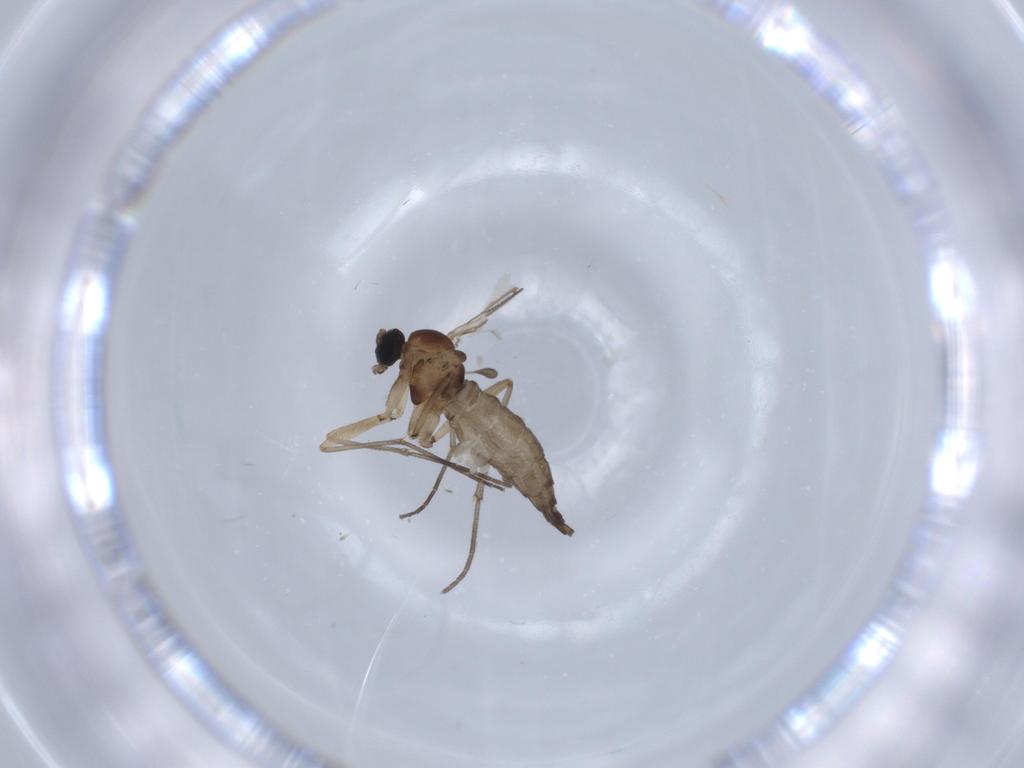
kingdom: Animalia
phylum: Arthropoda
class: Insecta
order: Diptera
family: Sciaridae
